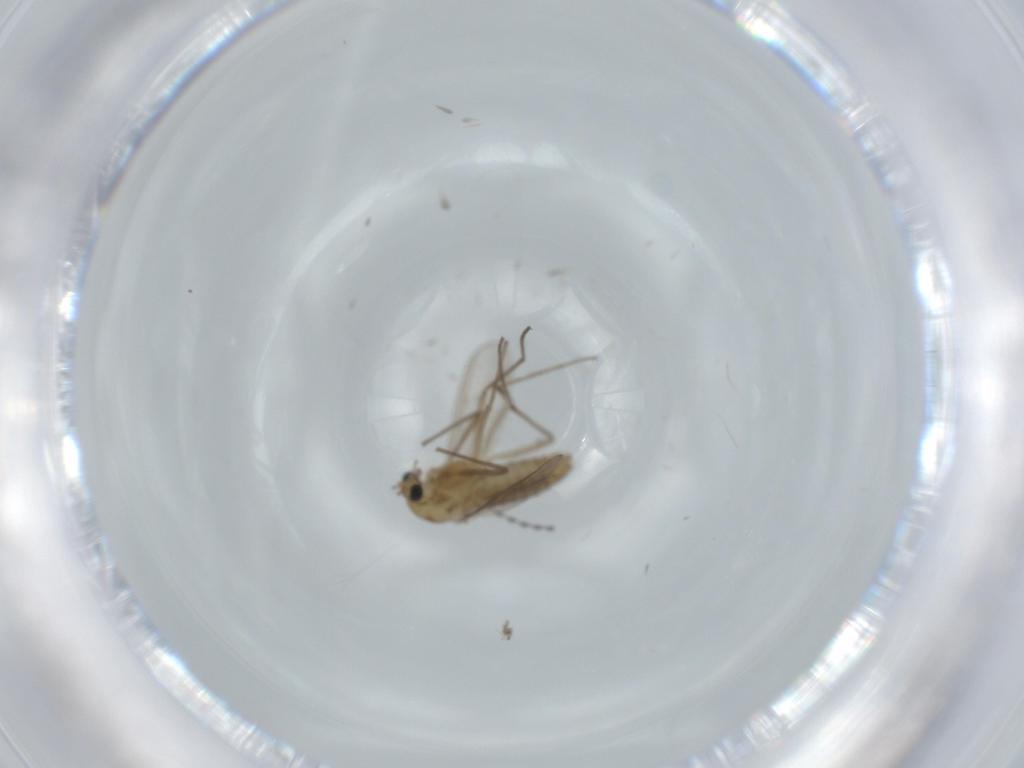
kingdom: Animalia
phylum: Arthropoda
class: Insecta
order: Diptera
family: Chironomidae
